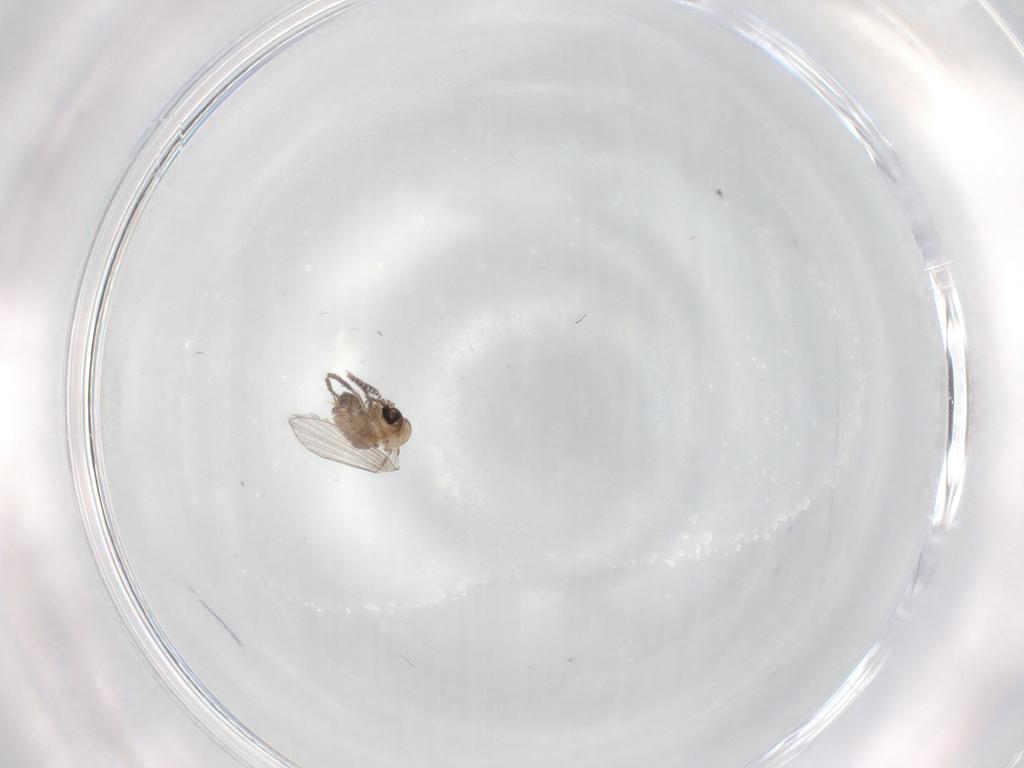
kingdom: Animalia
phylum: Arthropoda
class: Insecta
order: Diptera
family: Psychodidae
